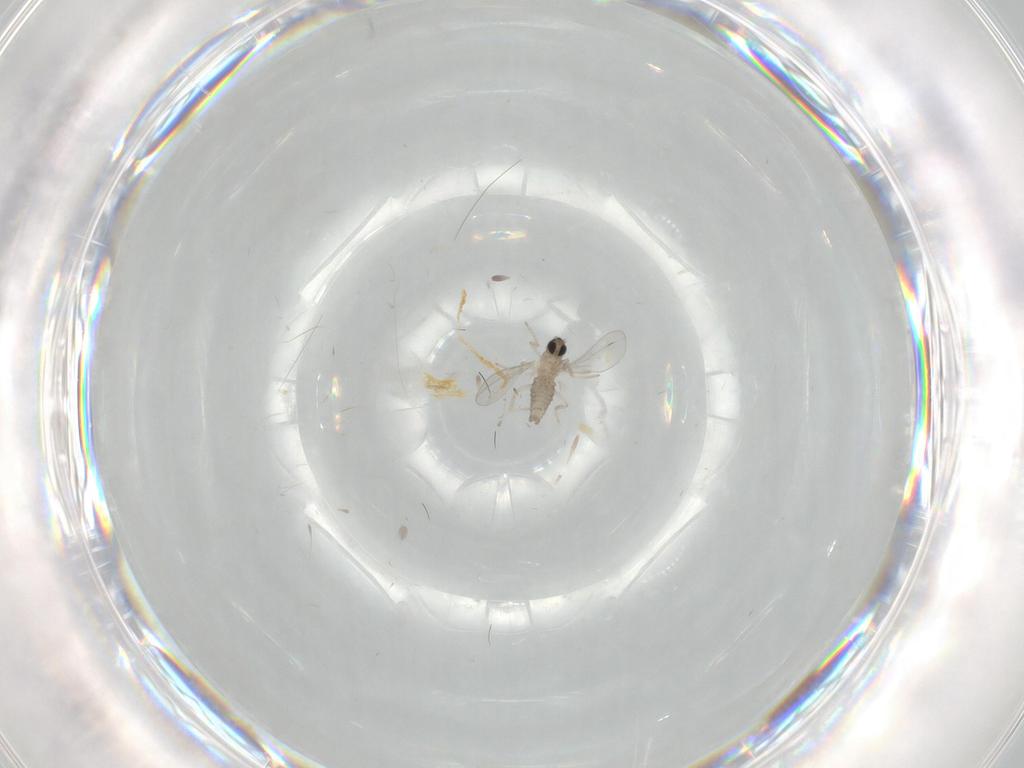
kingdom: Animalia
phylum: Arthropoda
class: Insecta
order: Diptera
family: Cecidomyiidae
